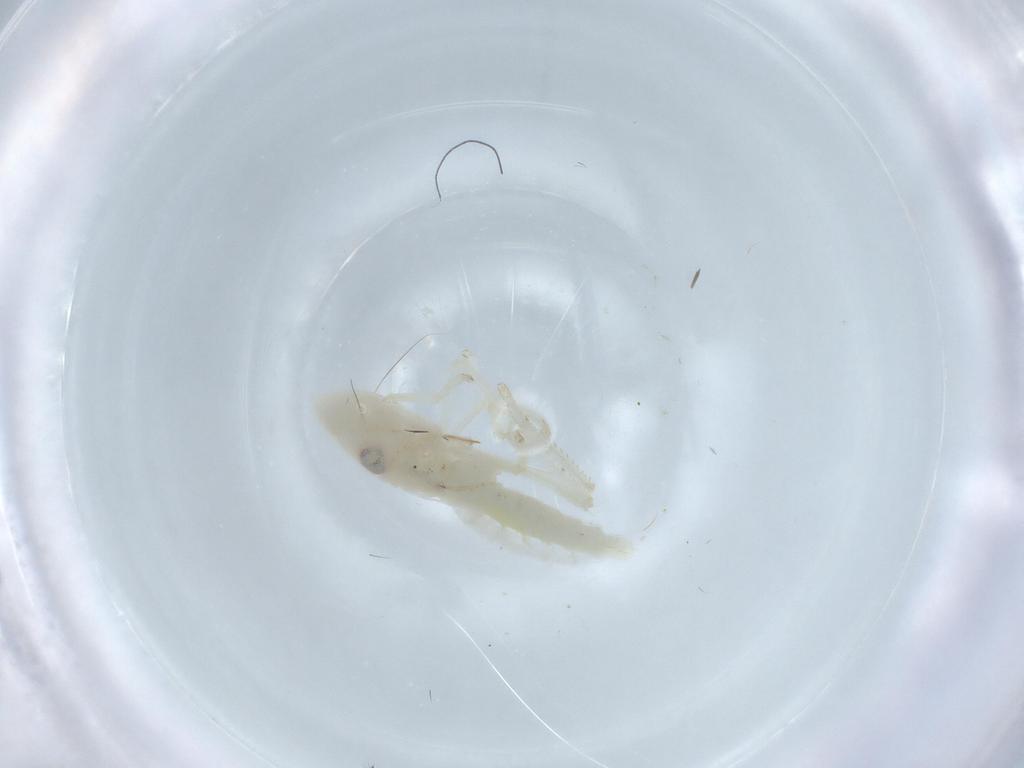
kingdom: Animalia
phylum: Arthropoda
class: Insecta
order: Hemiptera
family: Cicadellidae
